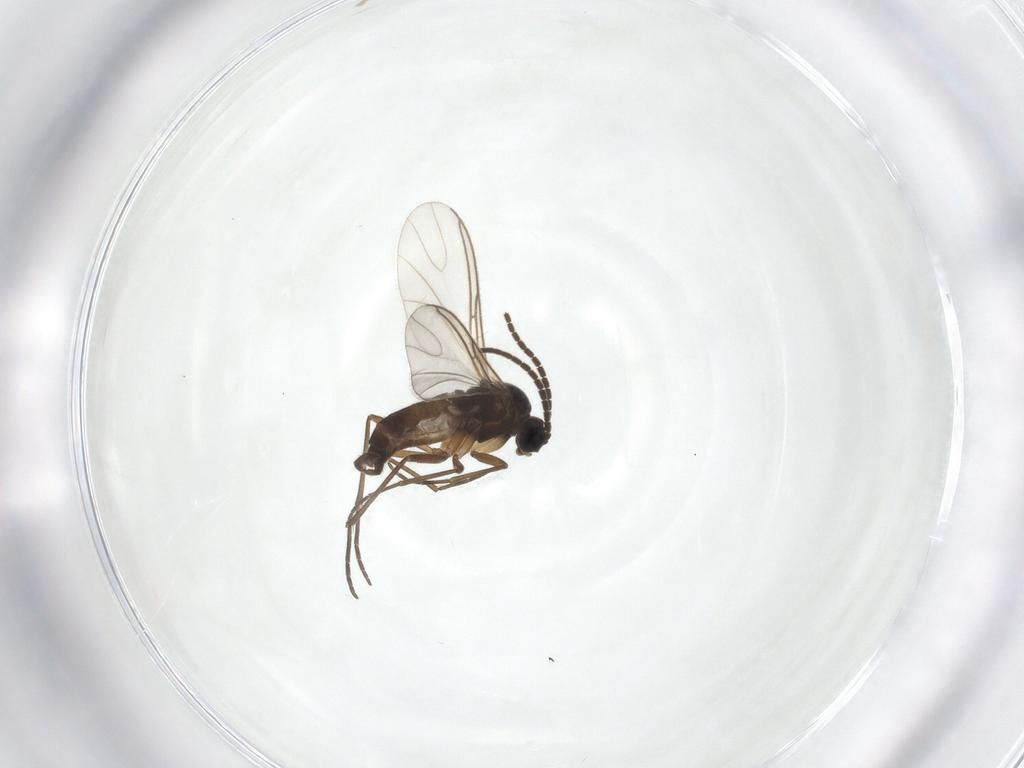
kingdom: Animalia
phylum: Arthropoda
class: Insecta
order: Diptera
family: Sciaridae
